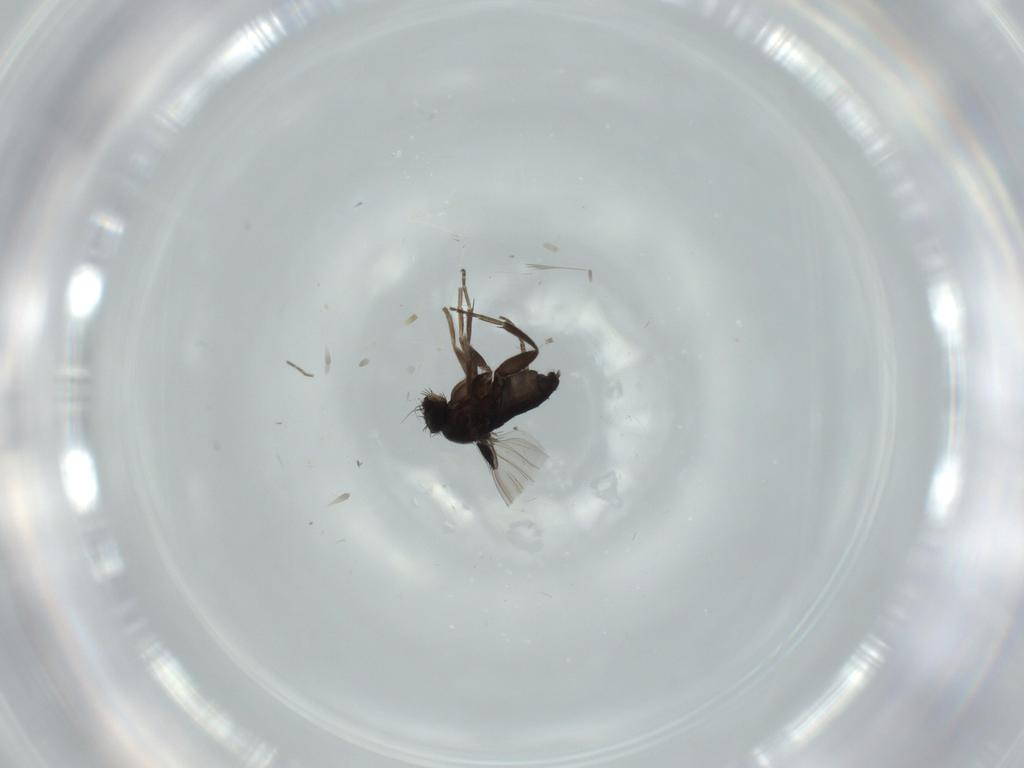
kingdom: Animalia
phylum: Arthropoda
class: Insecta
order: Diptera
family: Phoridae
